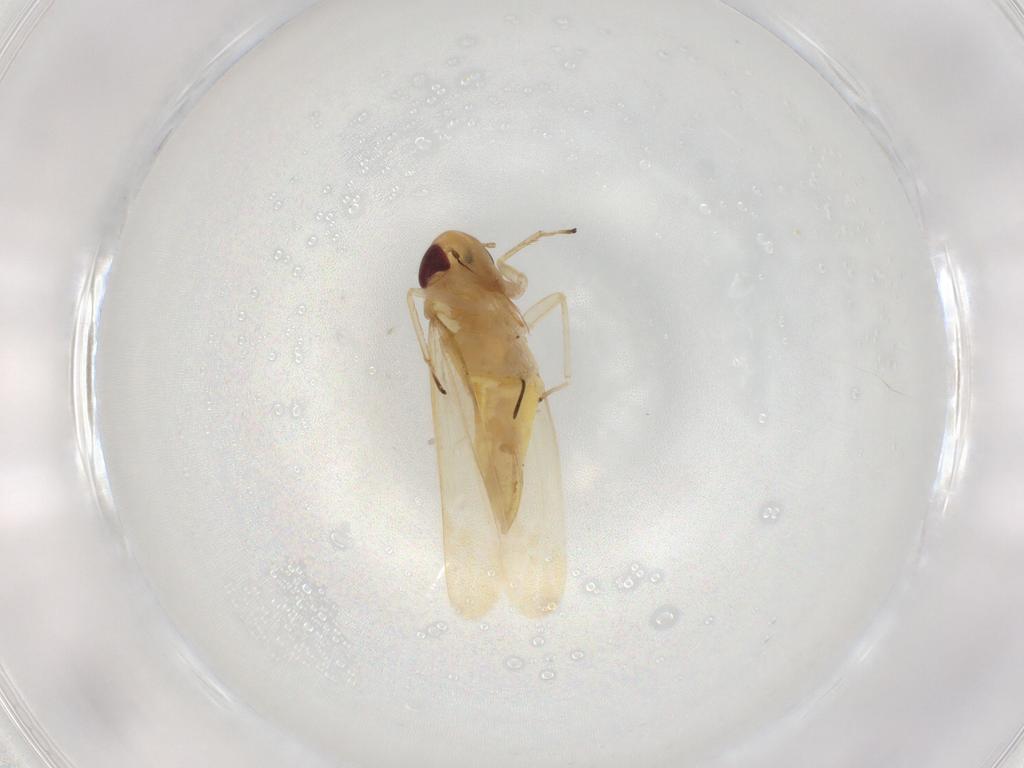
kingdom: Animalia
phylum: Arthropoda
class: Insecta
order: Hemiptera
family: Cicadellidae
